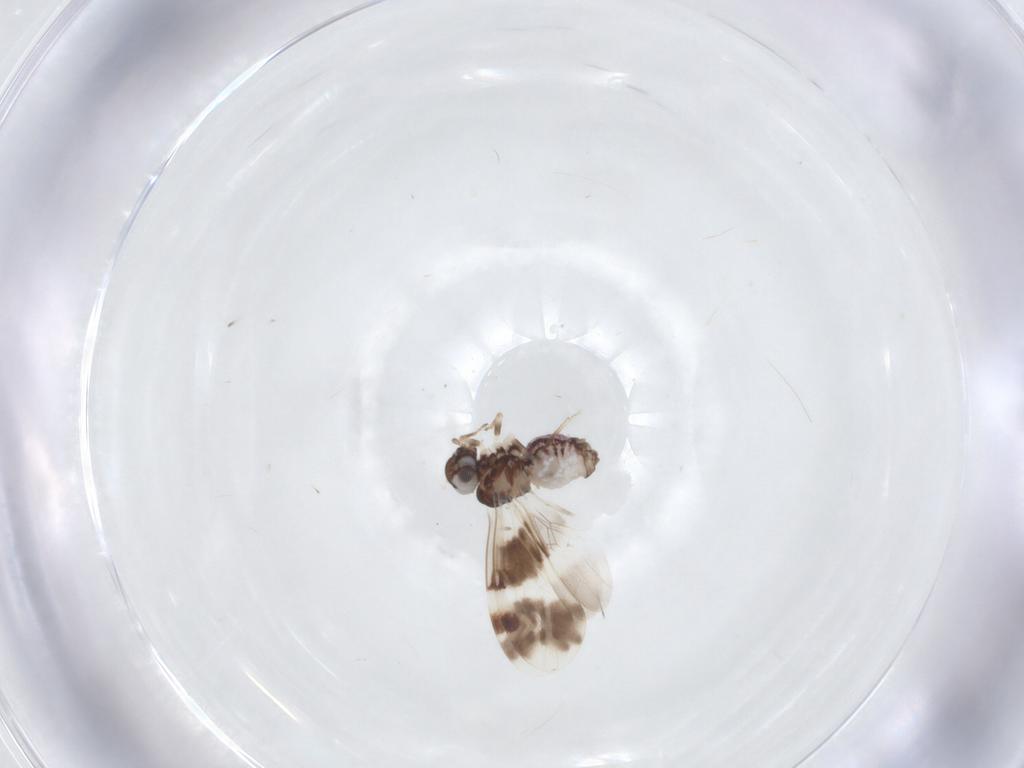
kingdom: Animalia
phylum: Arthropoda
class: Insecta
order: Psocodea
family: Ectopsocidae
